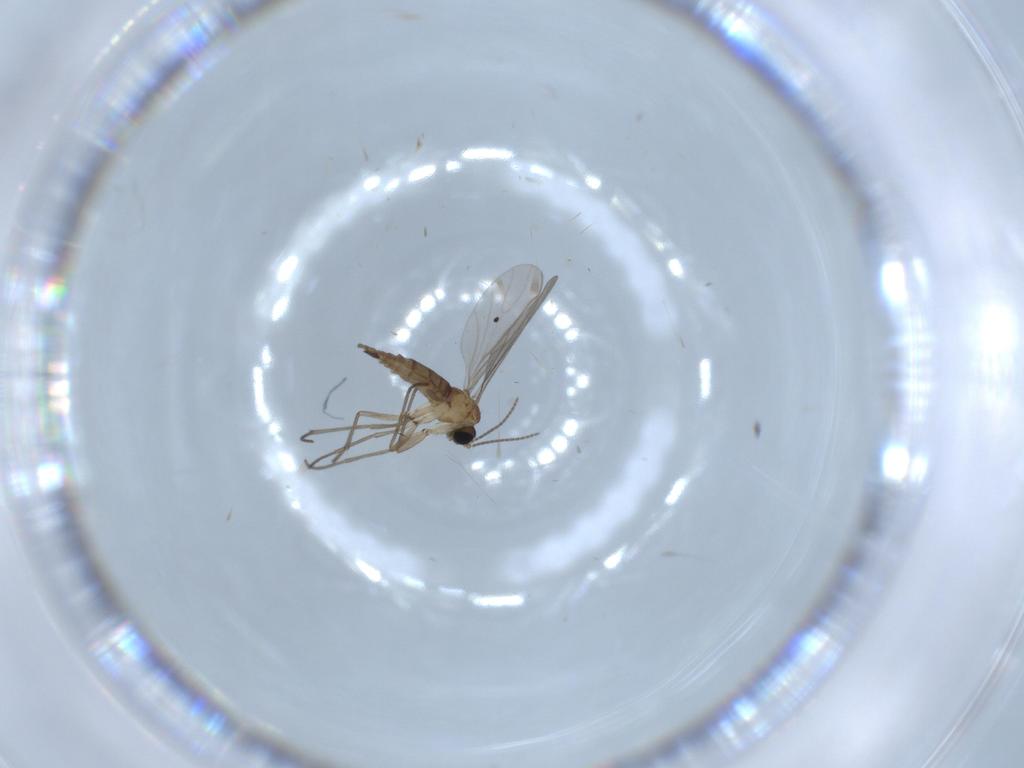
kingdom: Animalia
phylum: Arthropoda
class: Insecta
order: Diptera
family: Sciaridae
